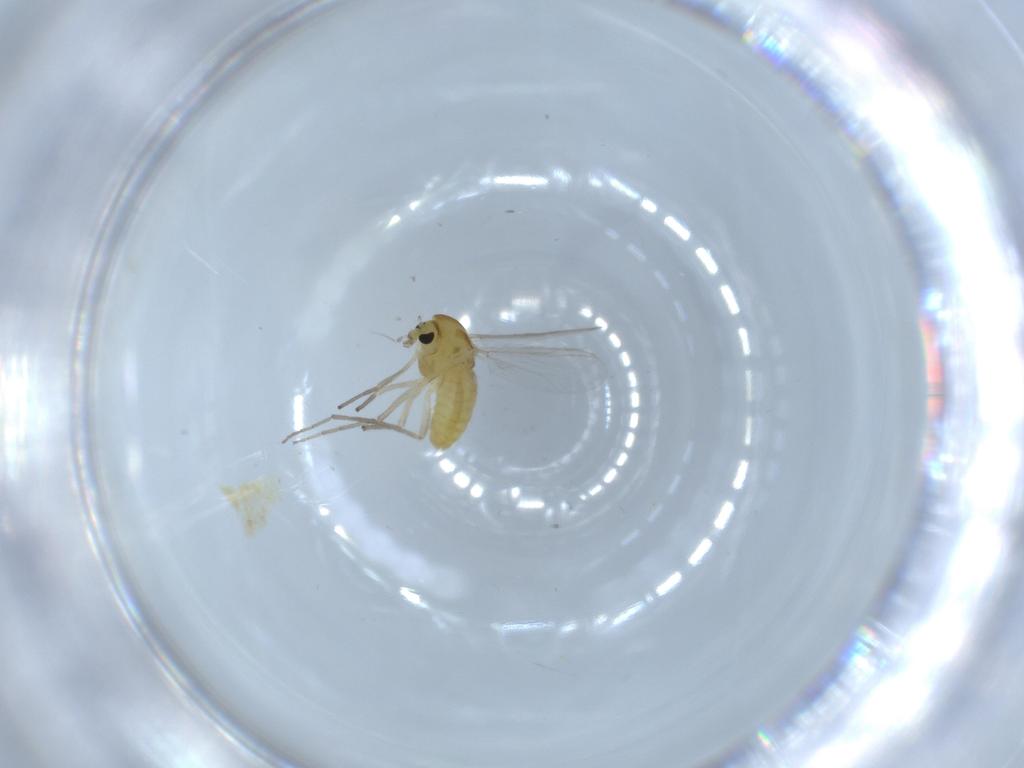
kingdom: Animalia
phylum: Arthropoda
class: Insecta
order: Diptera
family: Chironomidae
